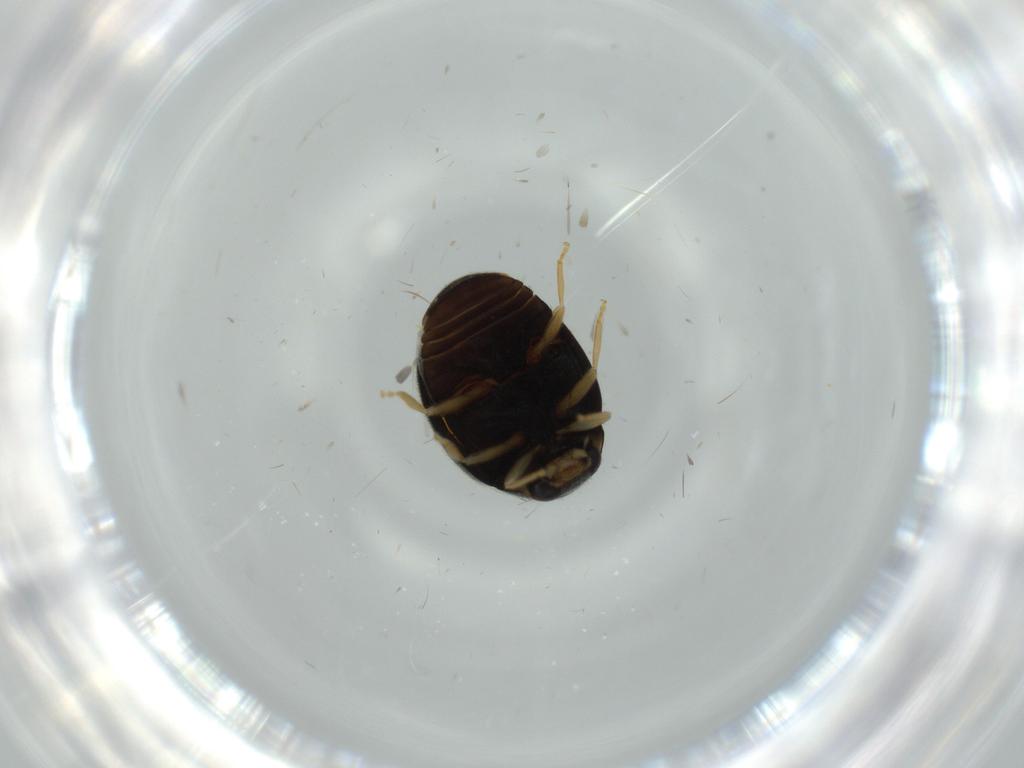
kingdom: Animalia
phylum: Arthropoda
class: Insecta
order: Coleoptera
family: Coccinellidae
